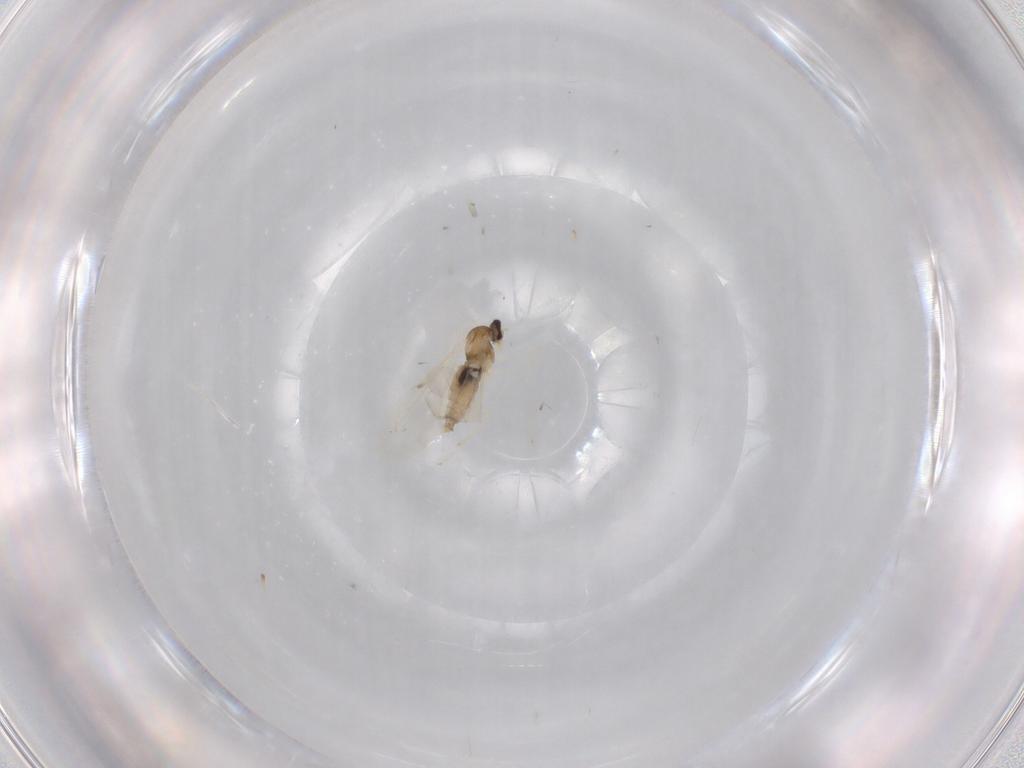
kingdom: Animalia
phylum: Arthropoda
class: Insecta
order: Diptera
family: Cecidomyiidae
